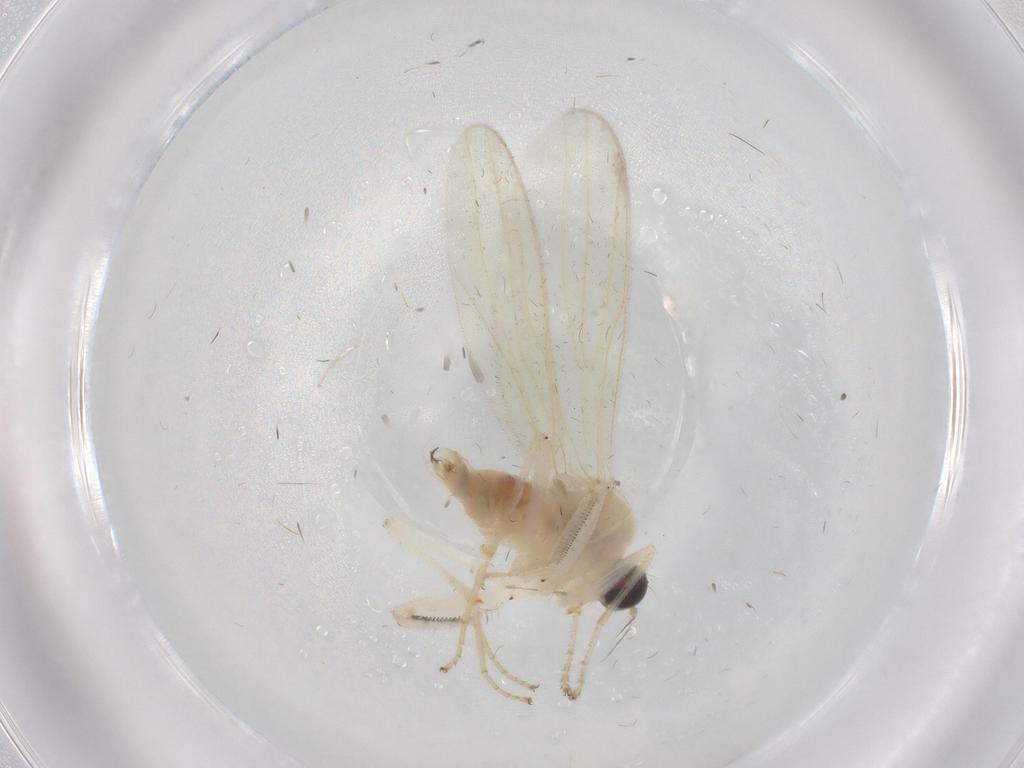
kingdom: Animalia
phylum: Arthropoda
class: Insecta
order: Diptera
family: Hybotidae
